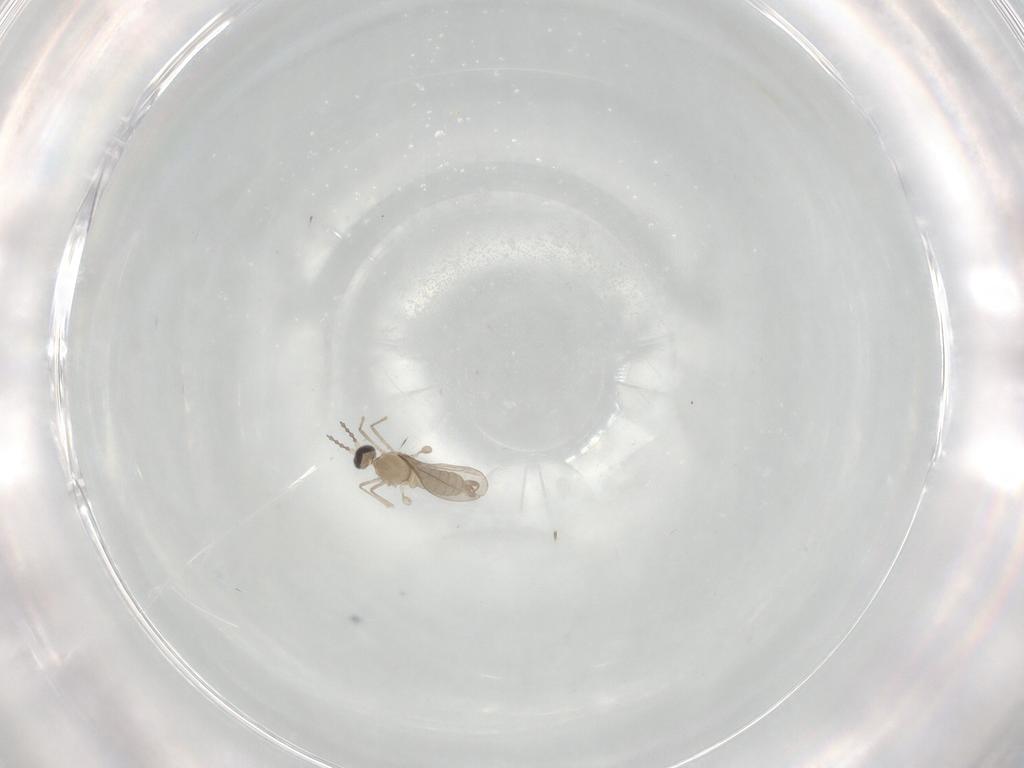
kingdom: Animalia
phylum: Arthropoda
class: Insecta
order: Diptera
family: Cecidomyiidae
